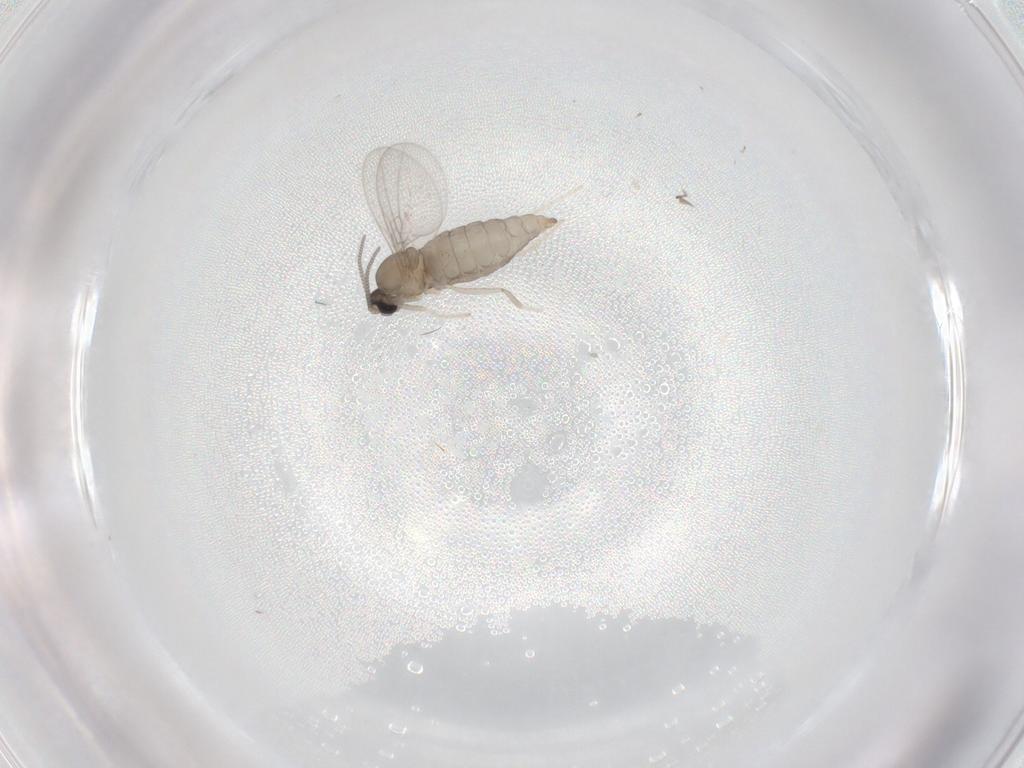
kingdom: Animalia
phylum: Arthropoda
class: Insecta
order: Diptera
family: Cecidomyiidae
